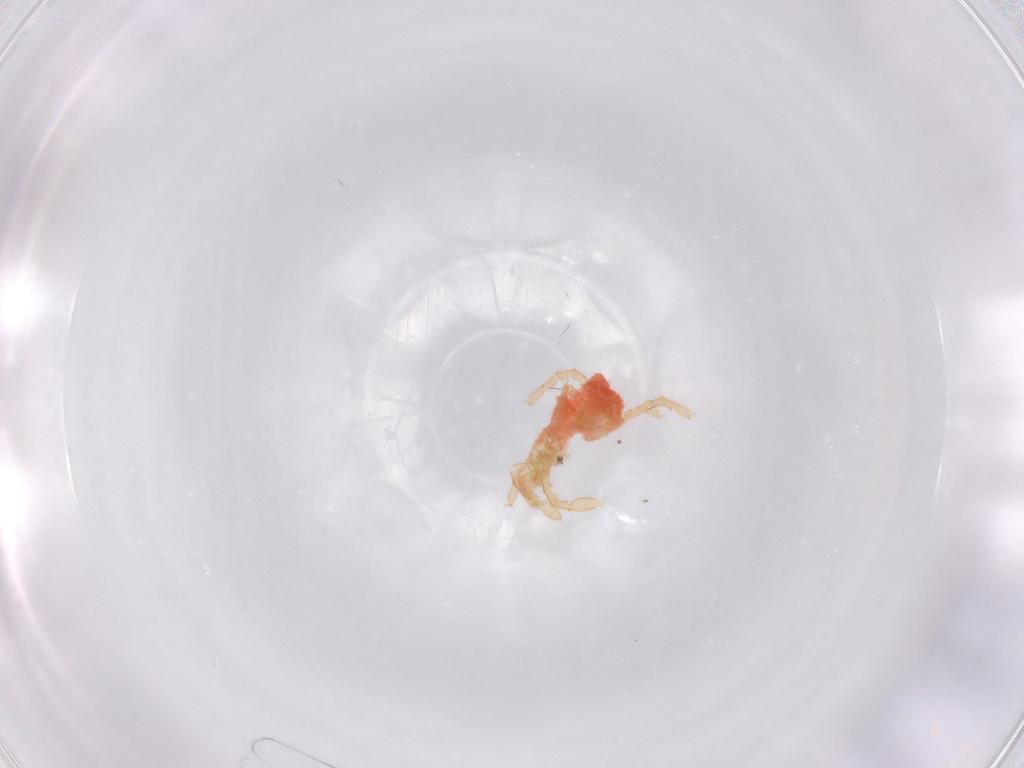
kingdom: Animalia
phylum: Arthropoda
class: Arachnida
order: Trombidiformes
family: Microtrombidiidae
